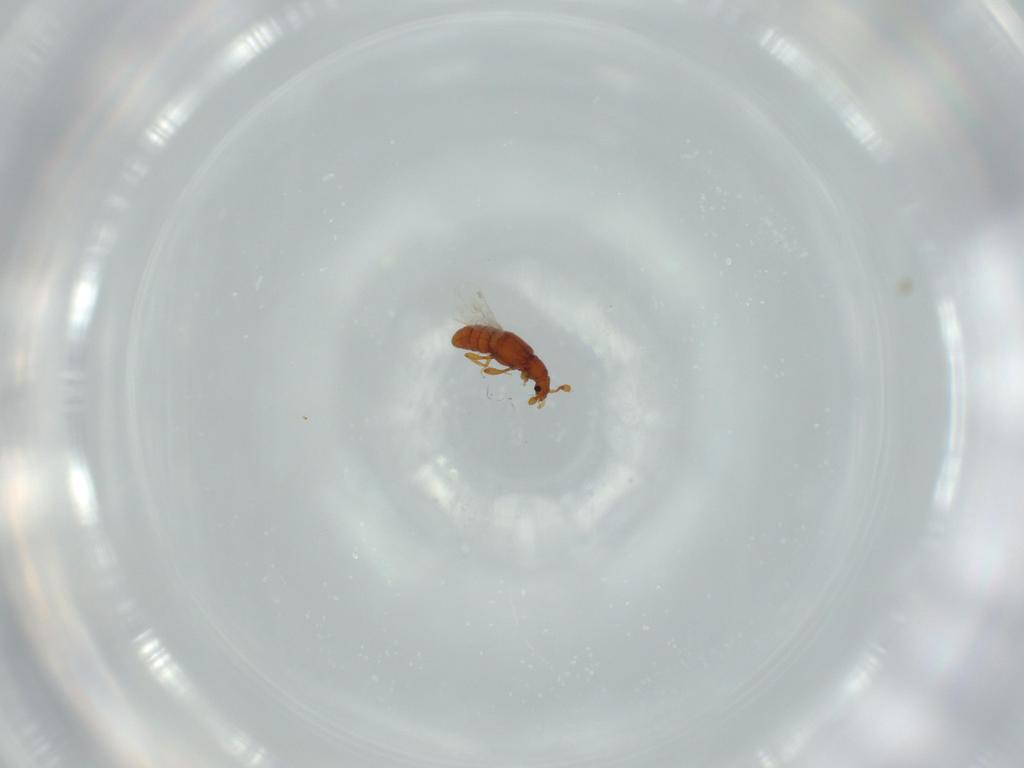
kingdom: Animalia
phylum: Arthropoda
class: Insecta
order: Coleoptera
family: Staphylinidae
